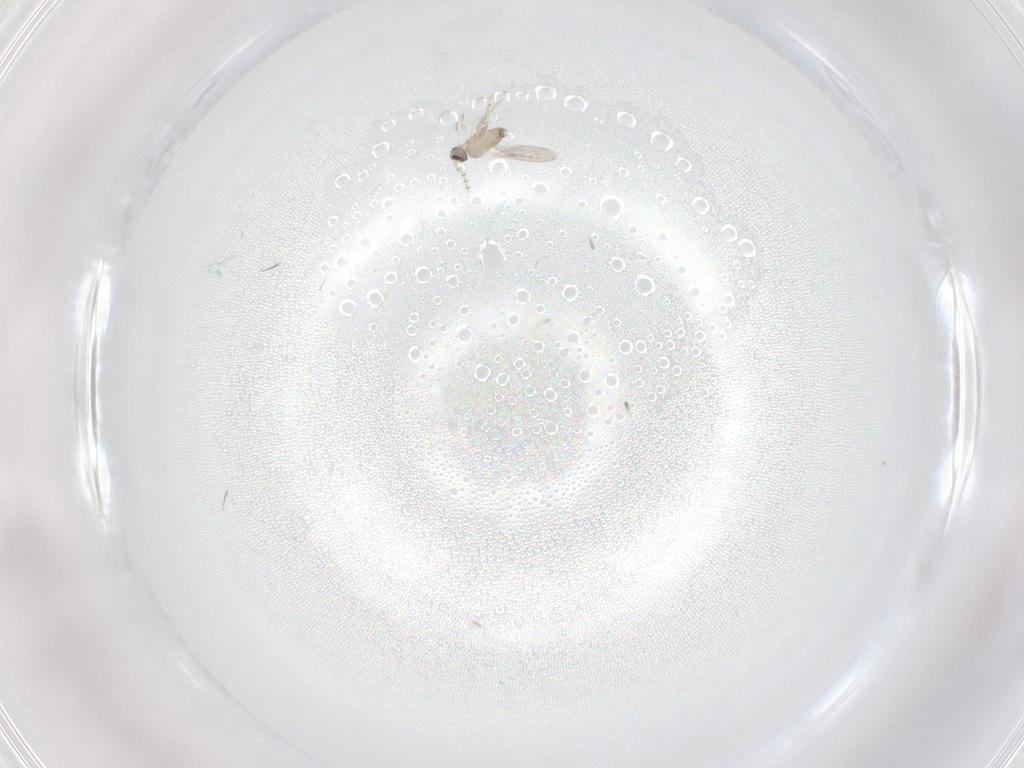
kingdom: Animalia
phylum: Arthropoda
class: Insecta
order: Diptera
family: Cecidomyiidae
